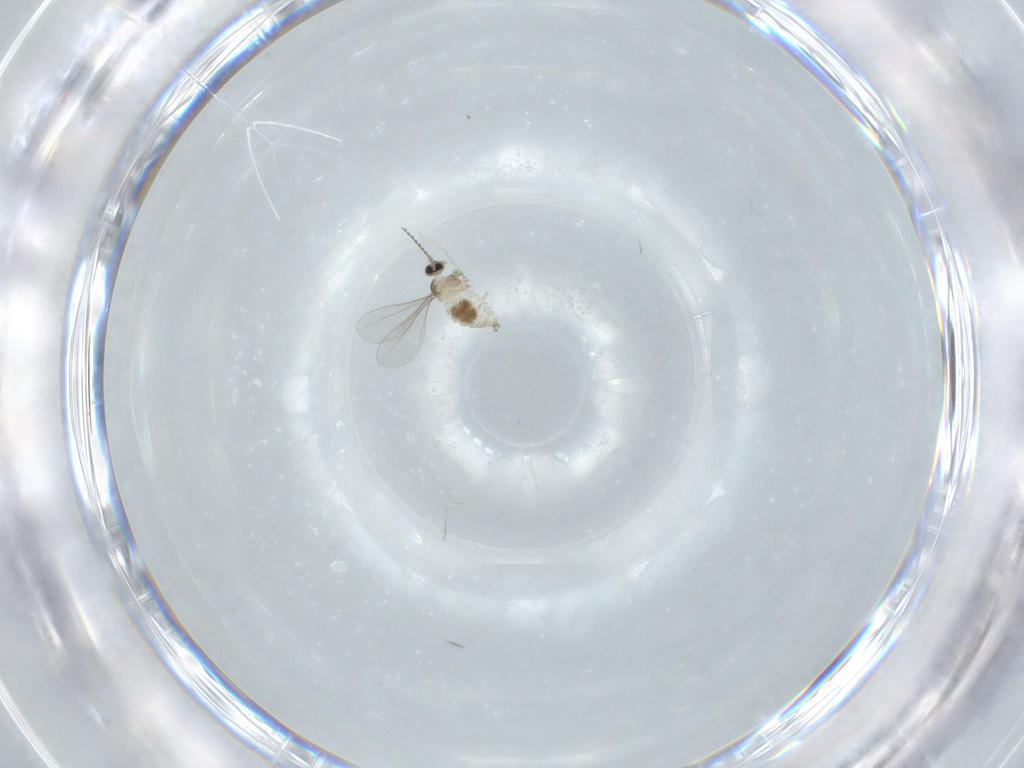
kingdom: Animalia
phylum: Arthropoda
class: Insecta
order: Diptera
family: Cecidomyiidae
